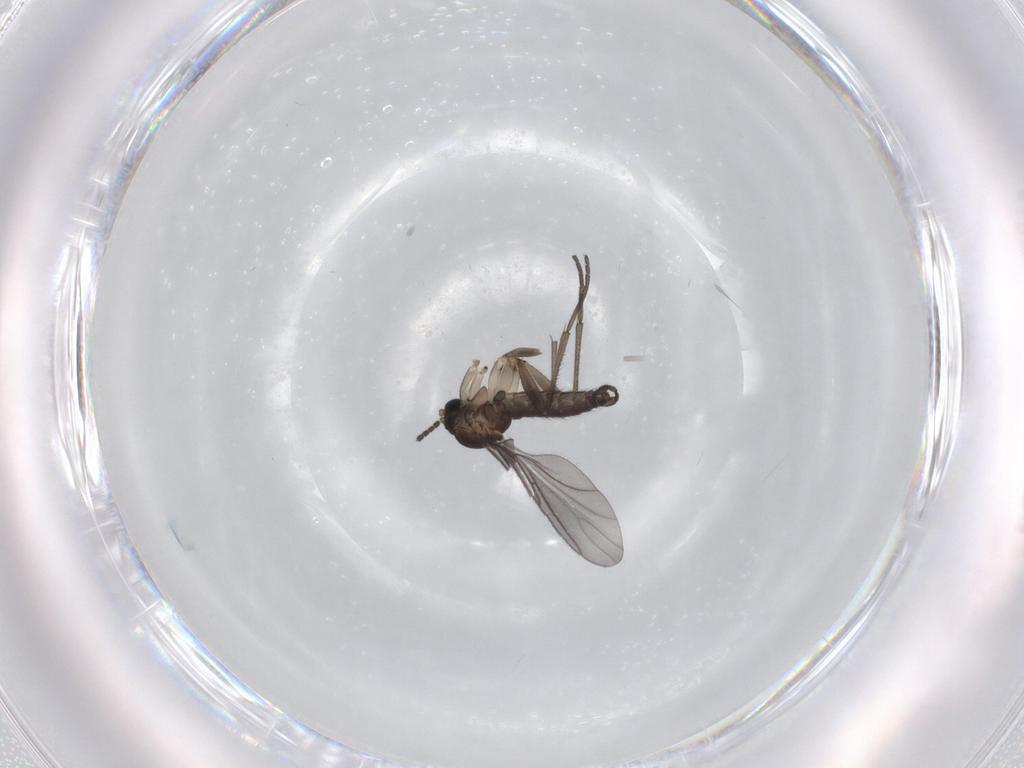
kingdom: Animalia
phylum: Arthropoda
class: Insecta
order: Diptera
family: Sciaridae
